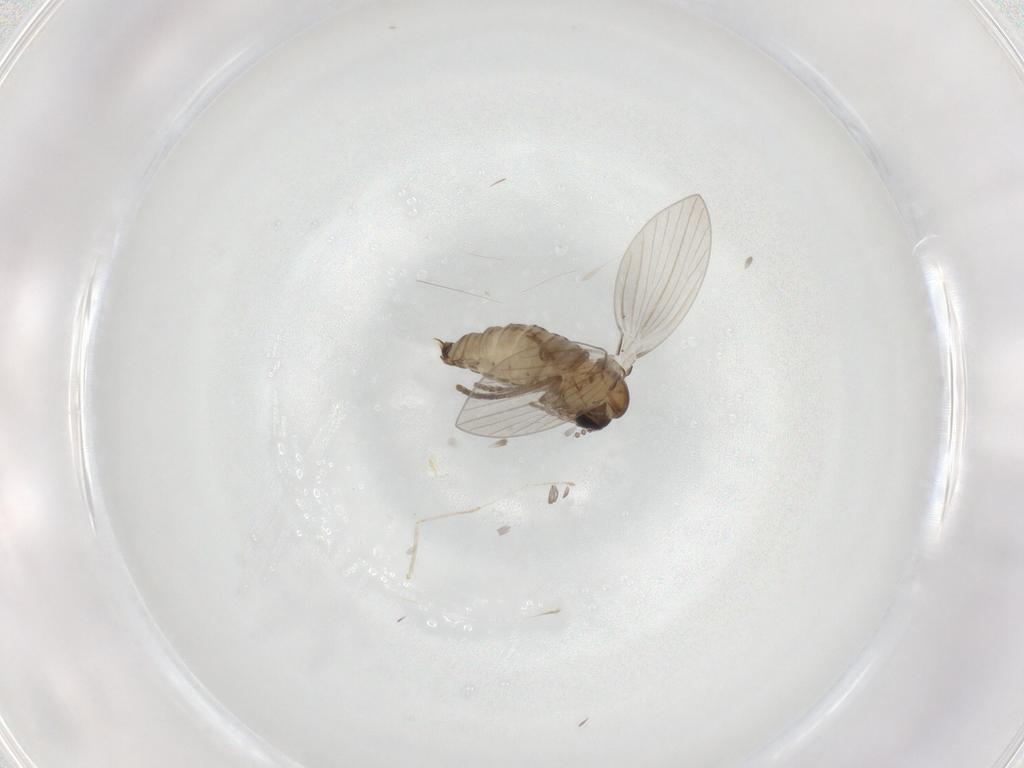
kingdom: Animalia
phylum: Arthropoda
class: Insecta
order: Diptera
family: Drosophilidae
